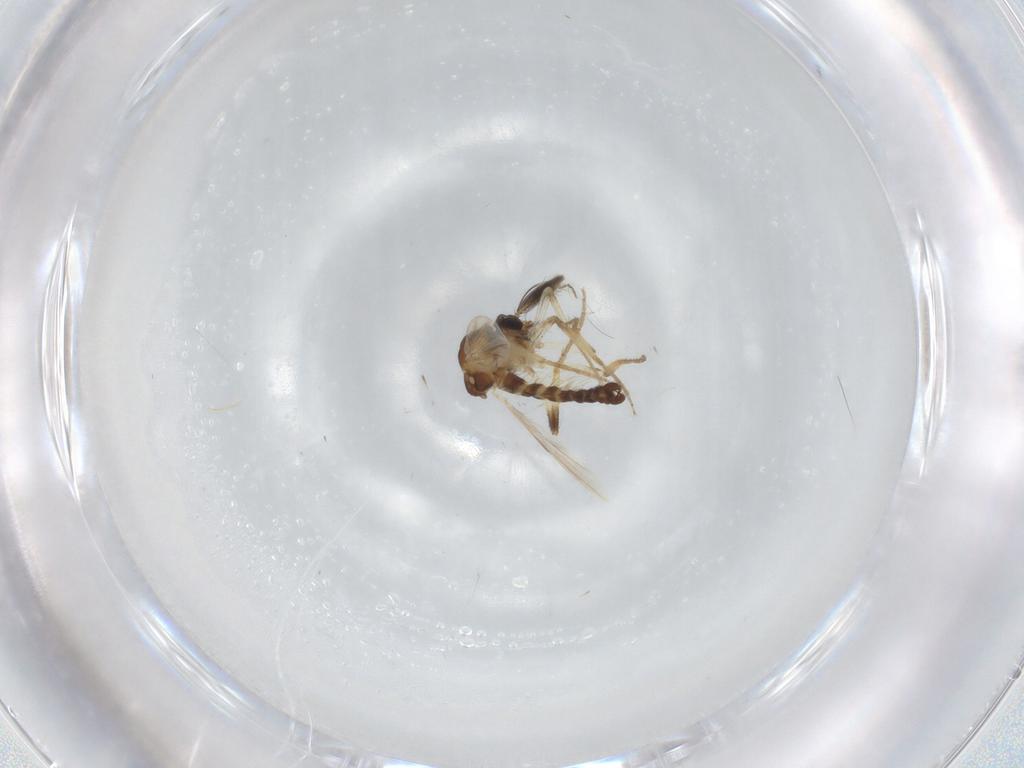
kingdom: Animalia
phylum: Arthropoda
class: Insecta
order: Diptera
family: Ceratopogonidae
